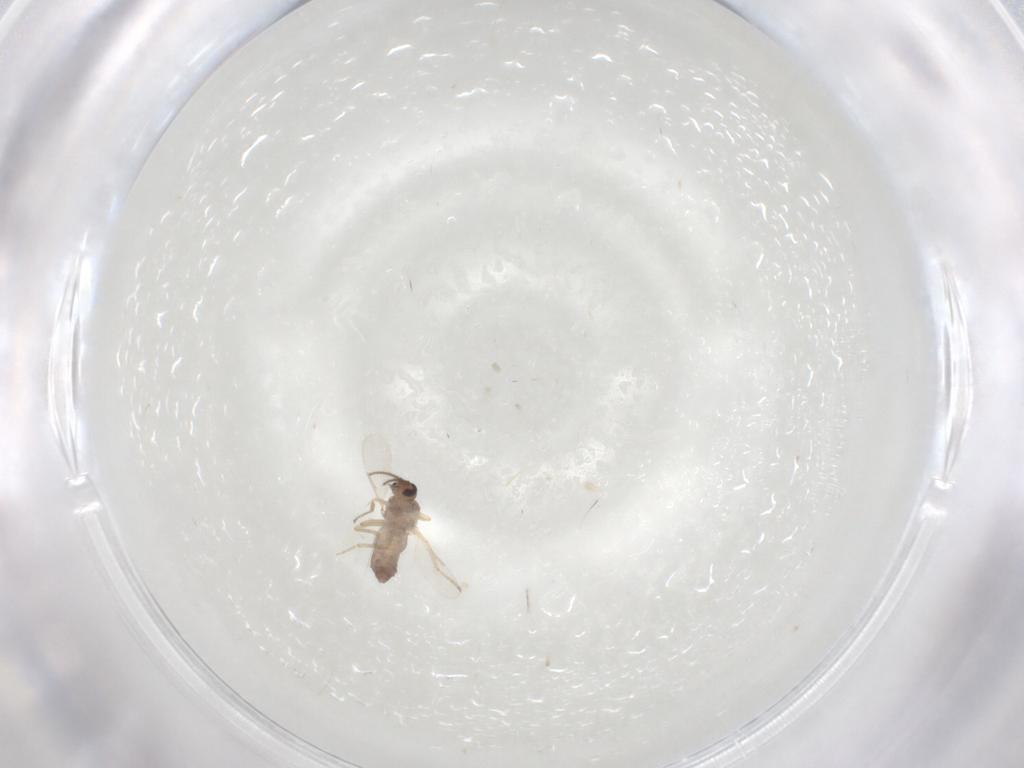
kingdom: Animalia
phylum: Arthropoda
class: Insecta
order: Diptera
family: Ceratopogonidae
